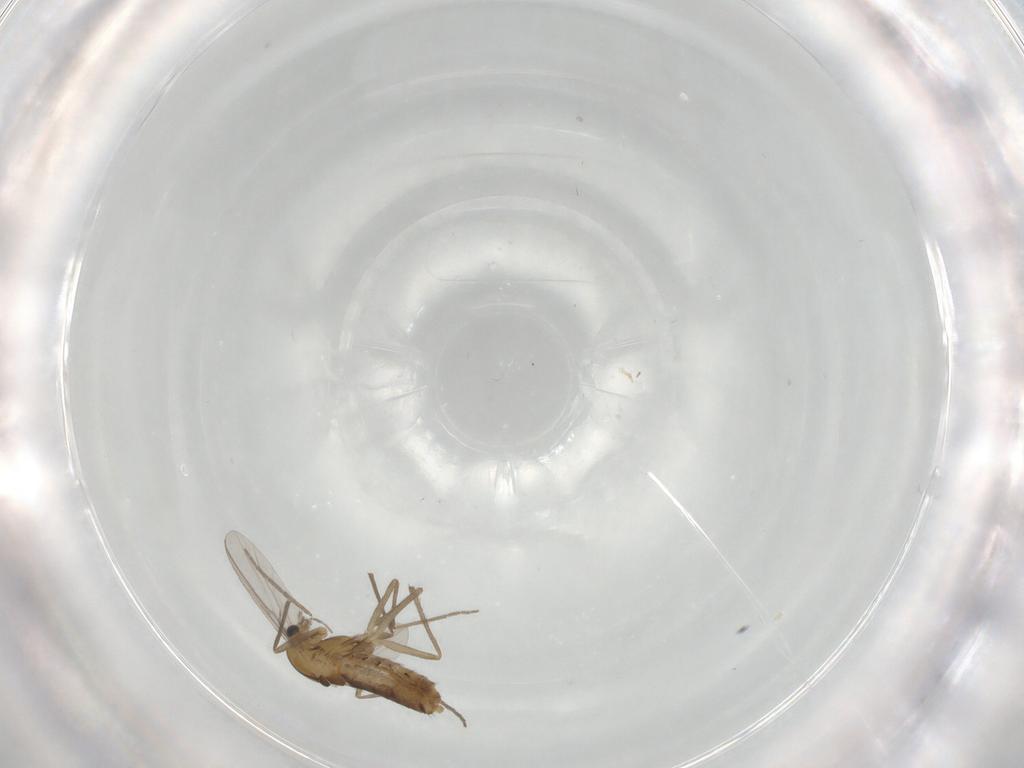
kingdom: Animalia
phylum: Arthropoda
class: Insecta
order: Diptera
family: Chironomidae
